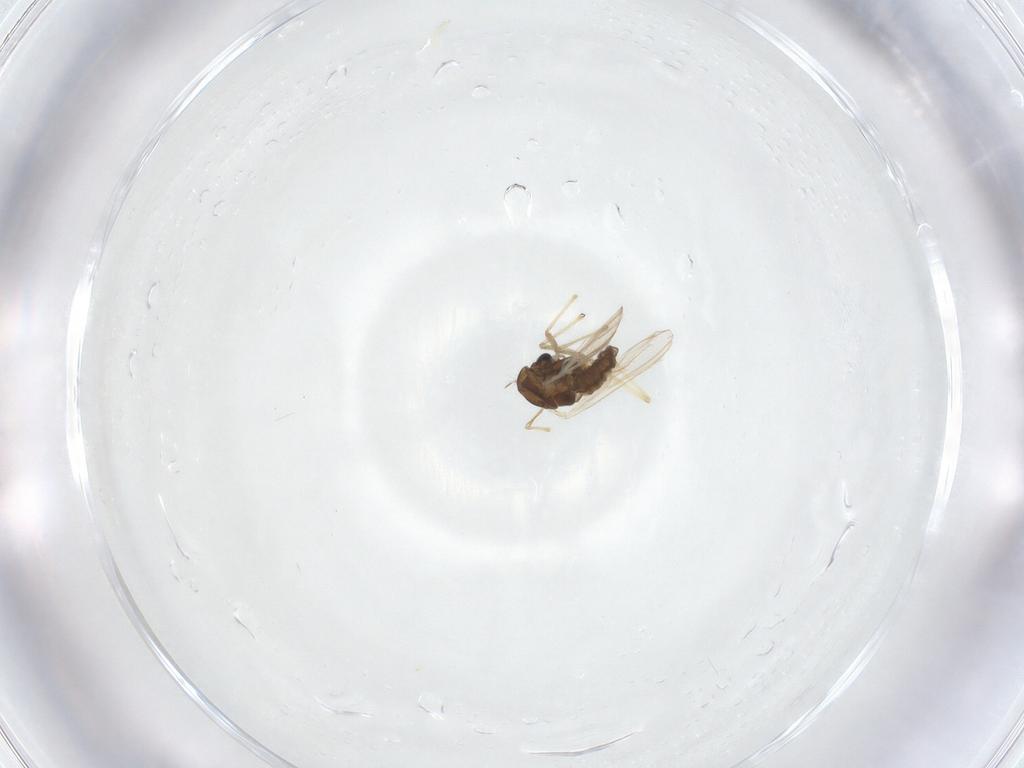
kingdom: Animalia
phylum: Arthropoda
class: Insecta
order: Diptera
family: Chironomidae
